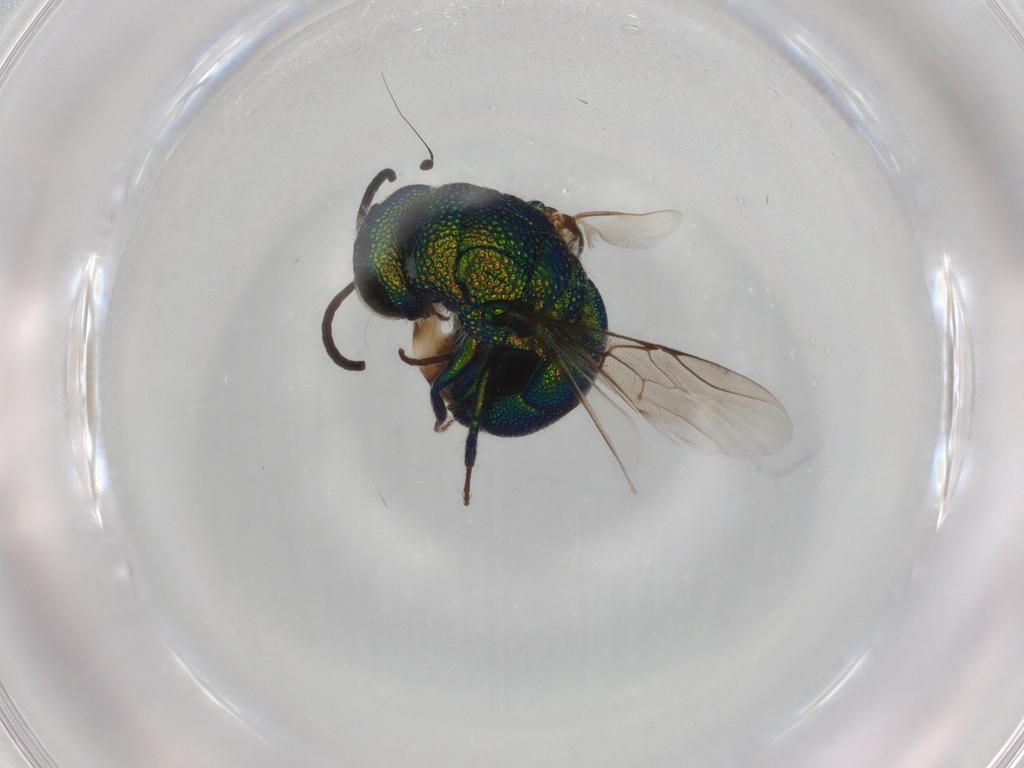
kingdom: Animalia
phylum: Arthropoda
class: Insecta
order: Hymenoptera
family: Chrysididae
